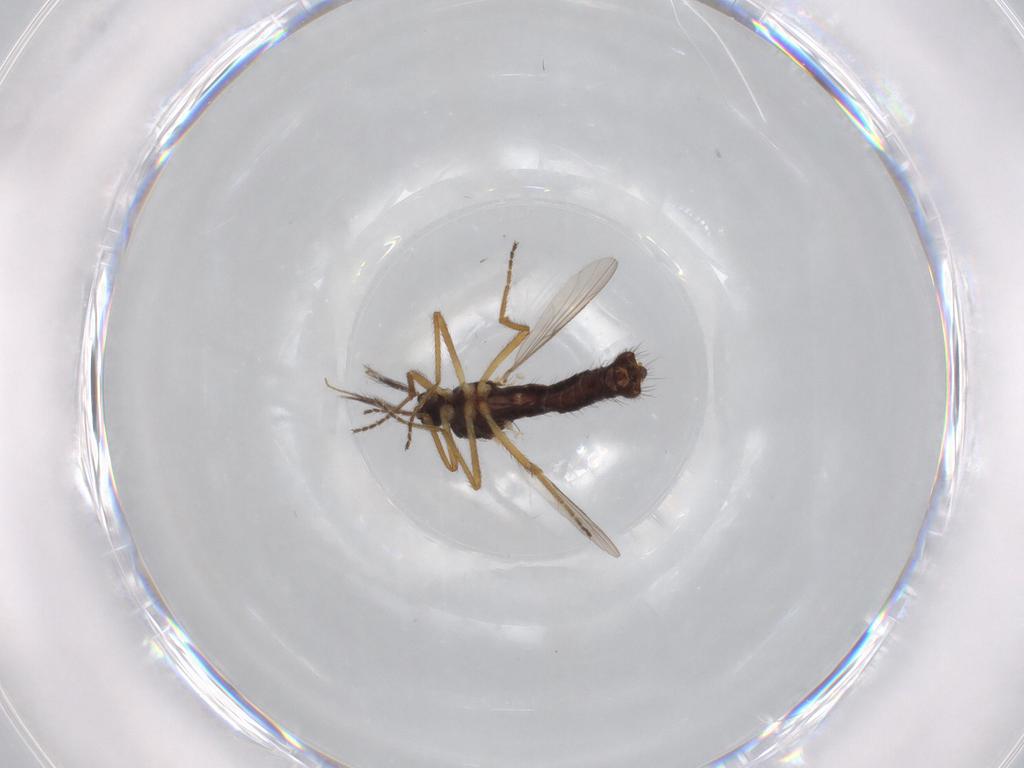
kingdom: Animalia
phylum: Arthropoda
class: Insecta
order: Diptera
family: Ceratopogonidae
